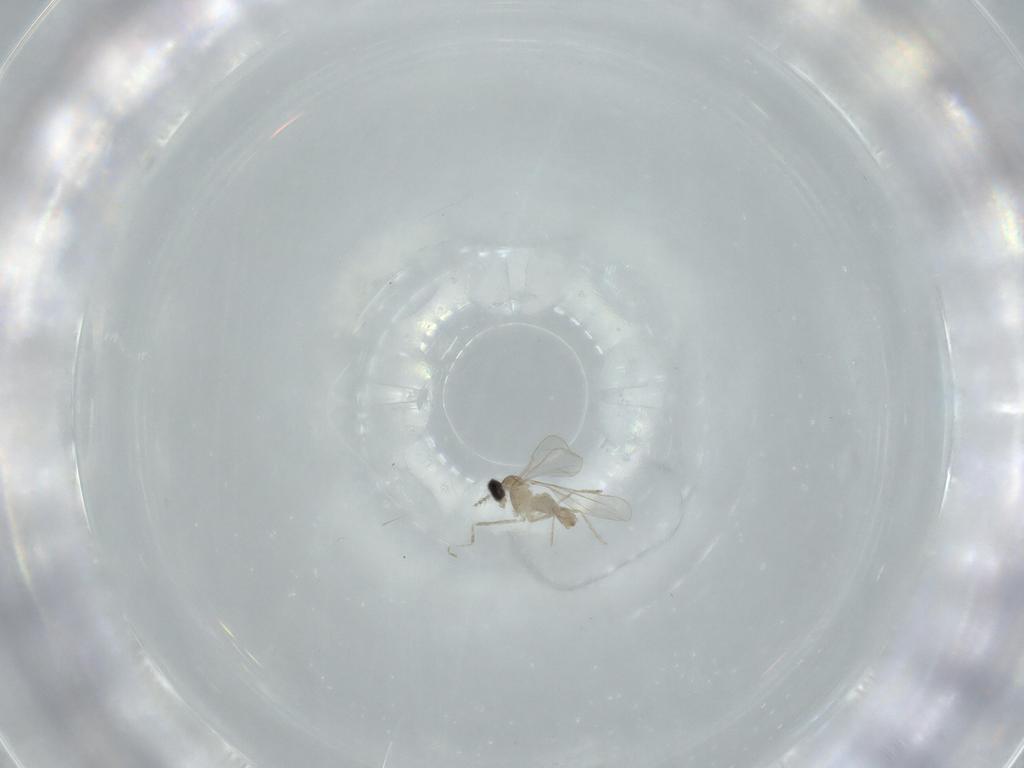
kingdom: Animalia
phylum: Arthropoda
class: Insecta
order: Diptera
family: Cecidomyiidae
